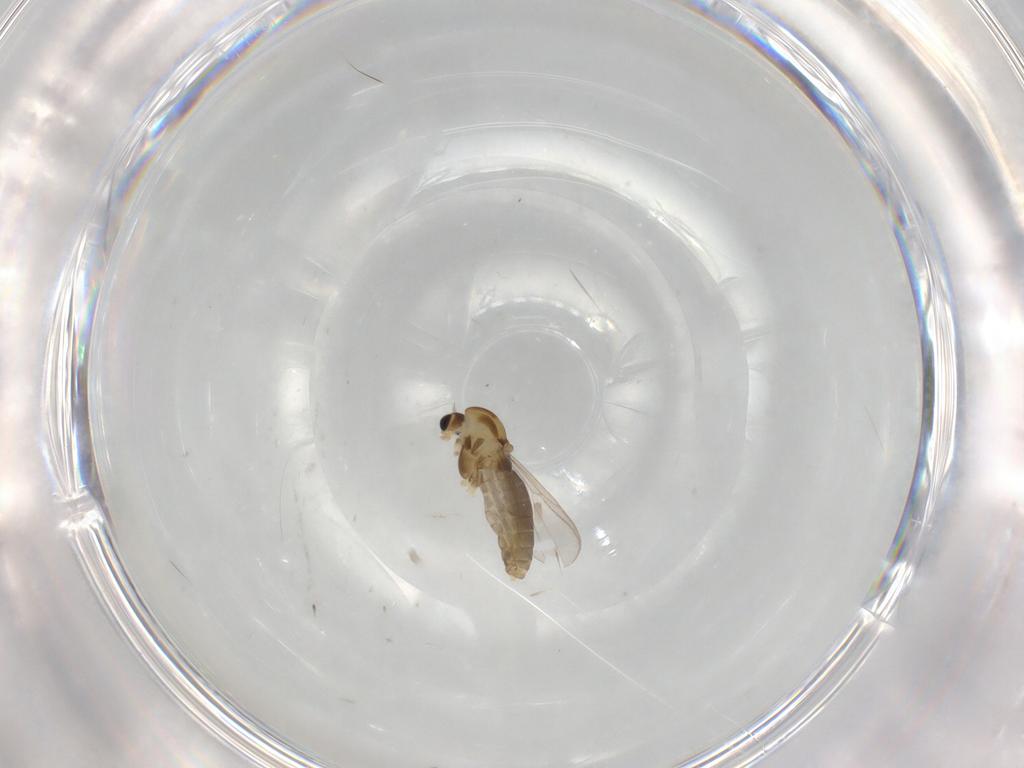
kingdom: Animalia
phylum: Arthropoda
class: Insecta
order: Diptera
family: Chironomidae
